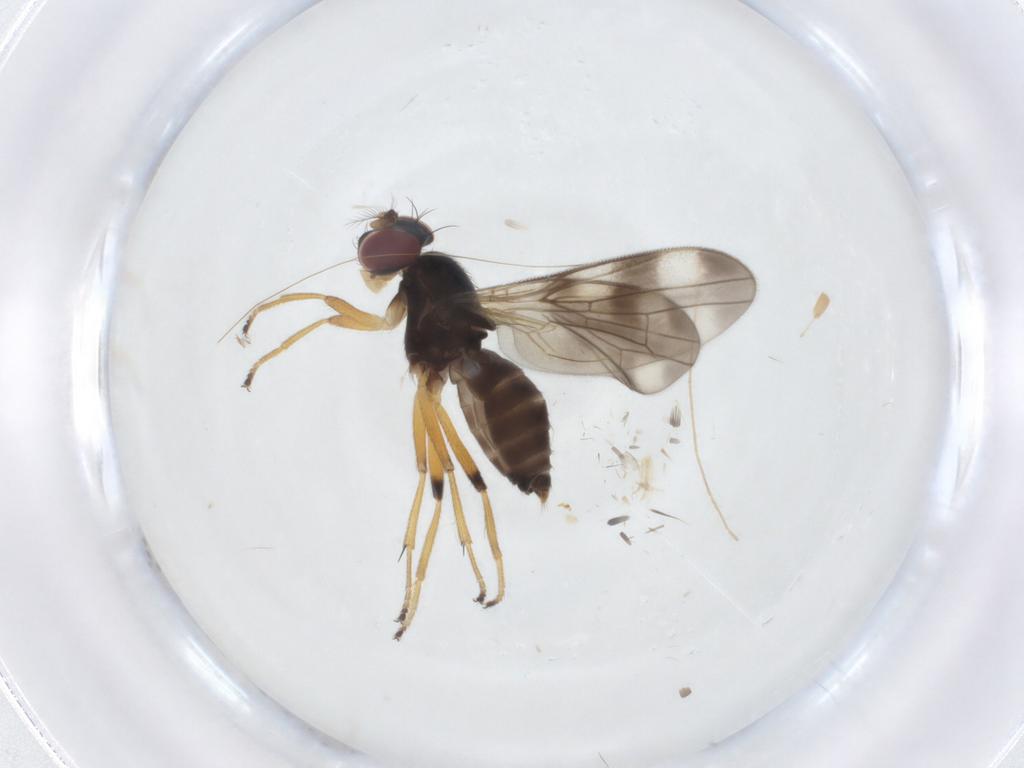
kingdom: Animalia
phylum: Arthropoda
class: Insecta
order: Diptera
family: Periscelididae
